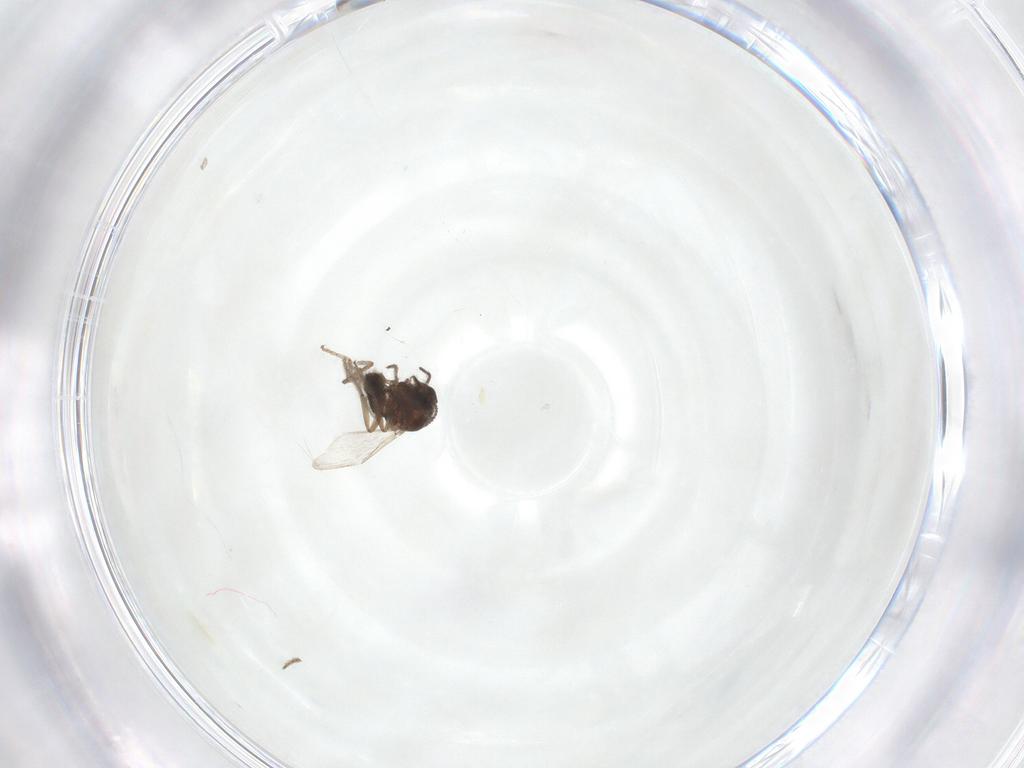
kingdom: Animalia
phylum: Arthropoda
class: Insecta
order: Diptera
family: Ceratopogonidae
